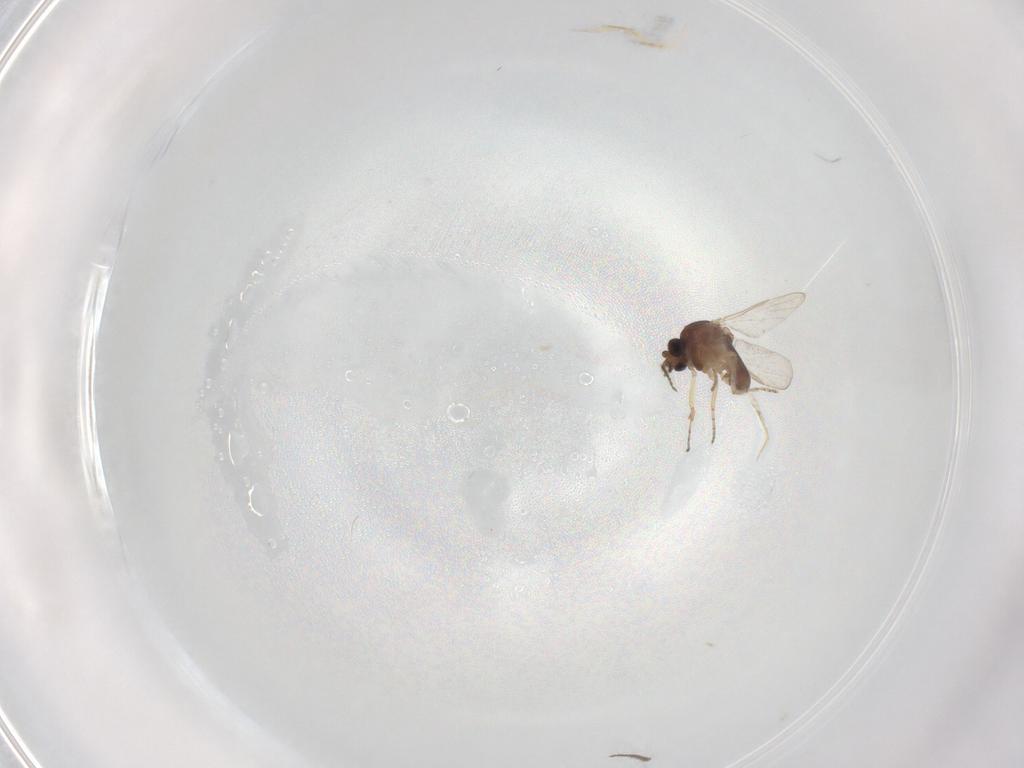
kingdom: Animalia
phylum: Arthropoda
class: Insecta
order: Diptera
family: Ceratopogonidae
